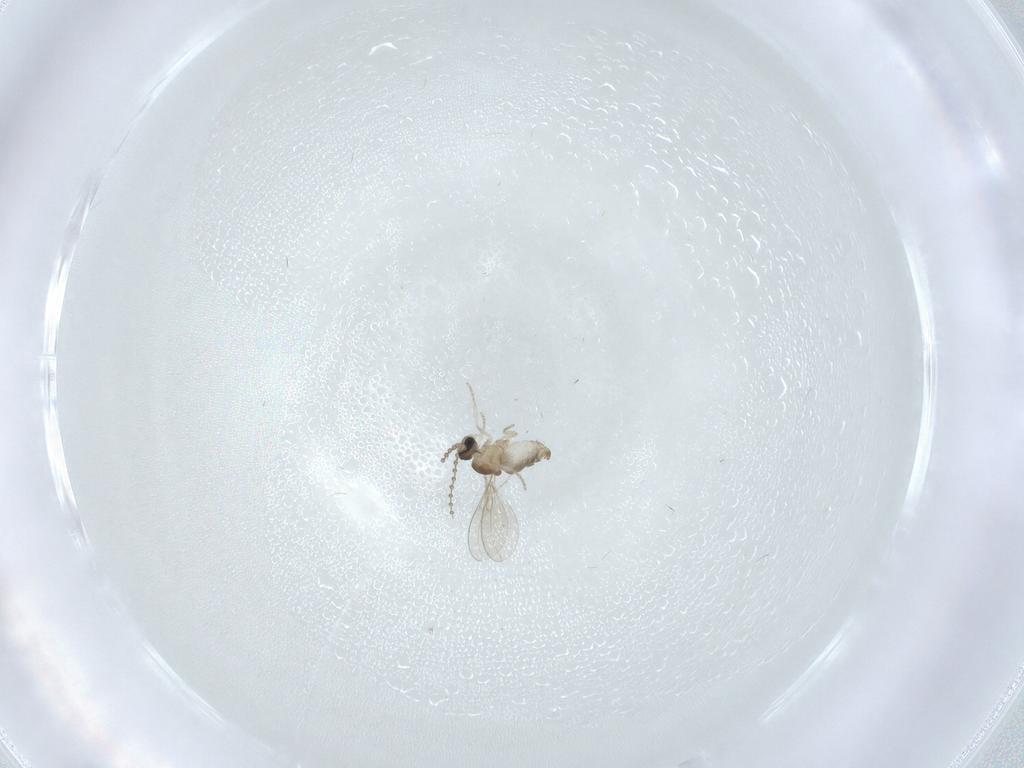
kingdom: Animalia
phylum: Arthropoda
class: Insecta
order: Diptera
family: Cecidomyiidae
